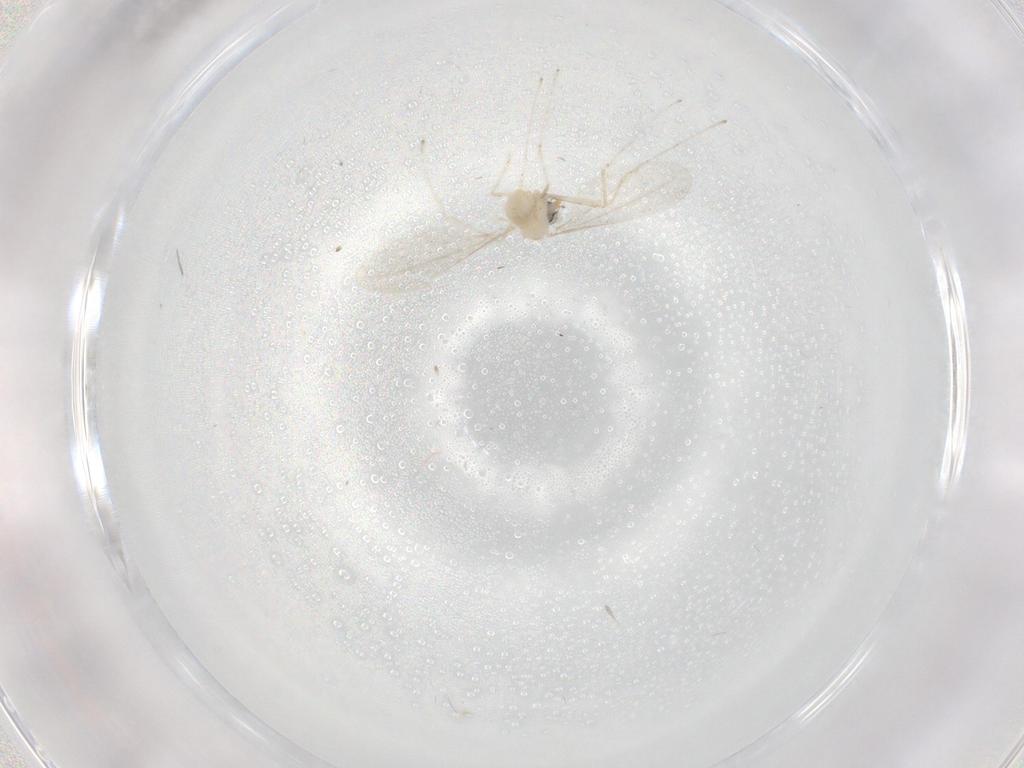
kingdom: Animalia
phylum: Arthropoda
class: Insecta
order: Diptera
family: Cecidomyiidae
